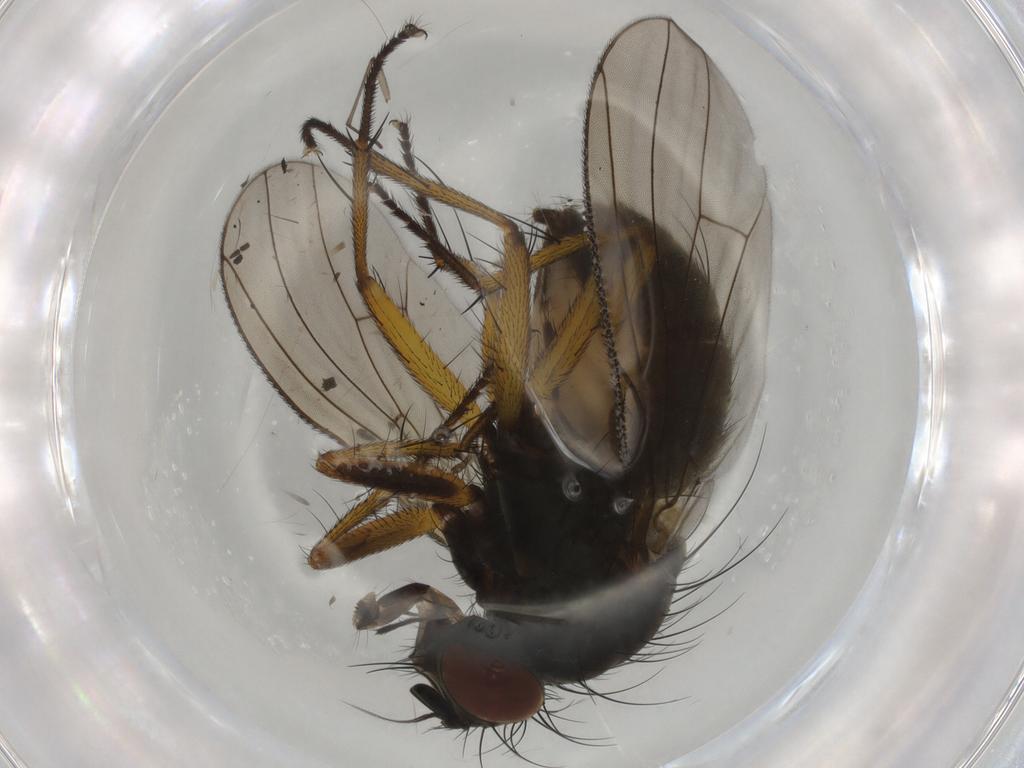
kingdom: Animalia
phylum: Arthropoda
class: Insecta
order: Diptera
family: Muscidae
